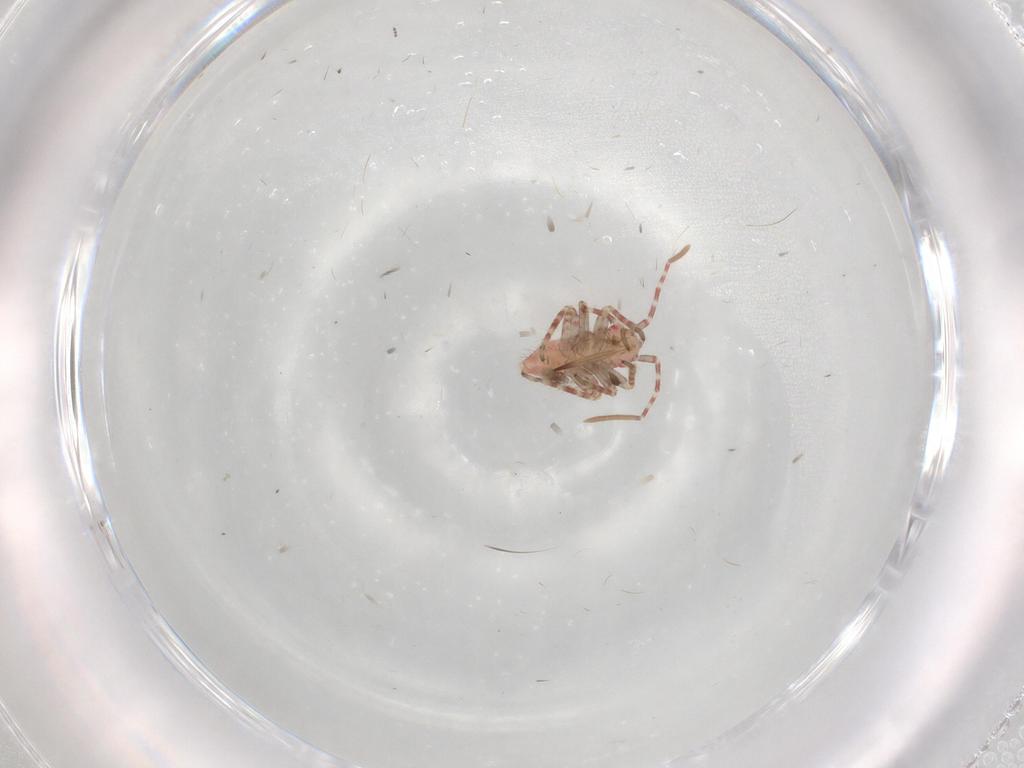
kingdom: Animalia
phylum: Arthropoda
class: Insecta
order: Hemiptera
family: Miridae
